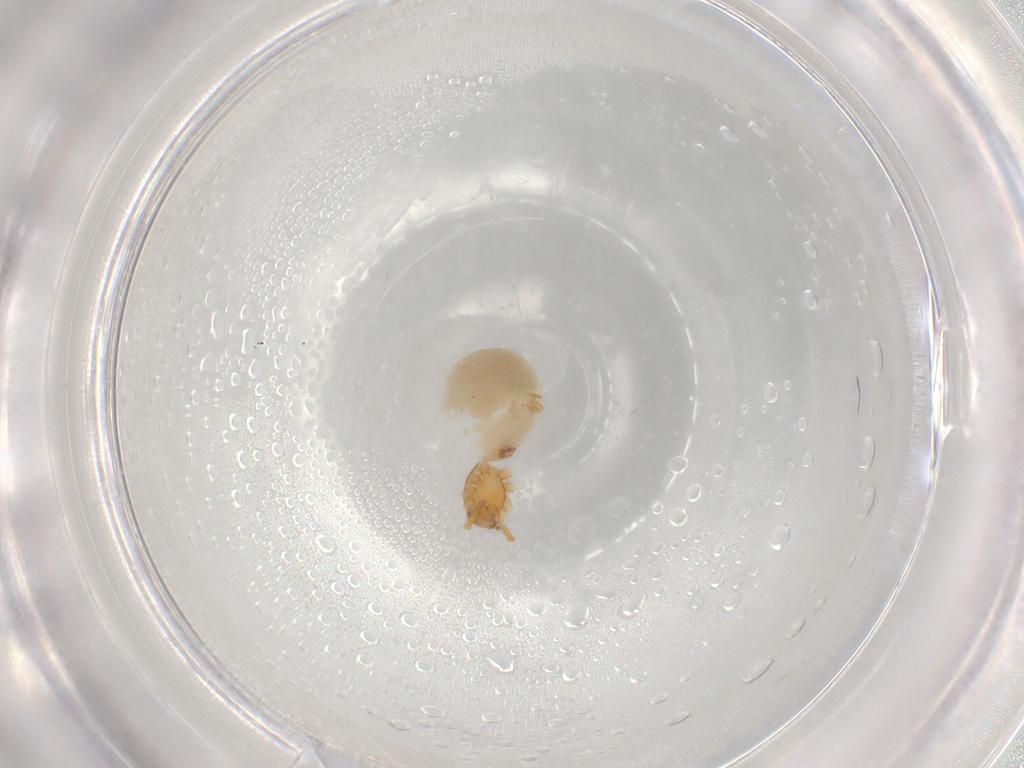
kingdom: Animalia
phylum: Arthropoda
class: Arachnida
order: Araneae
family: Oonopidae
